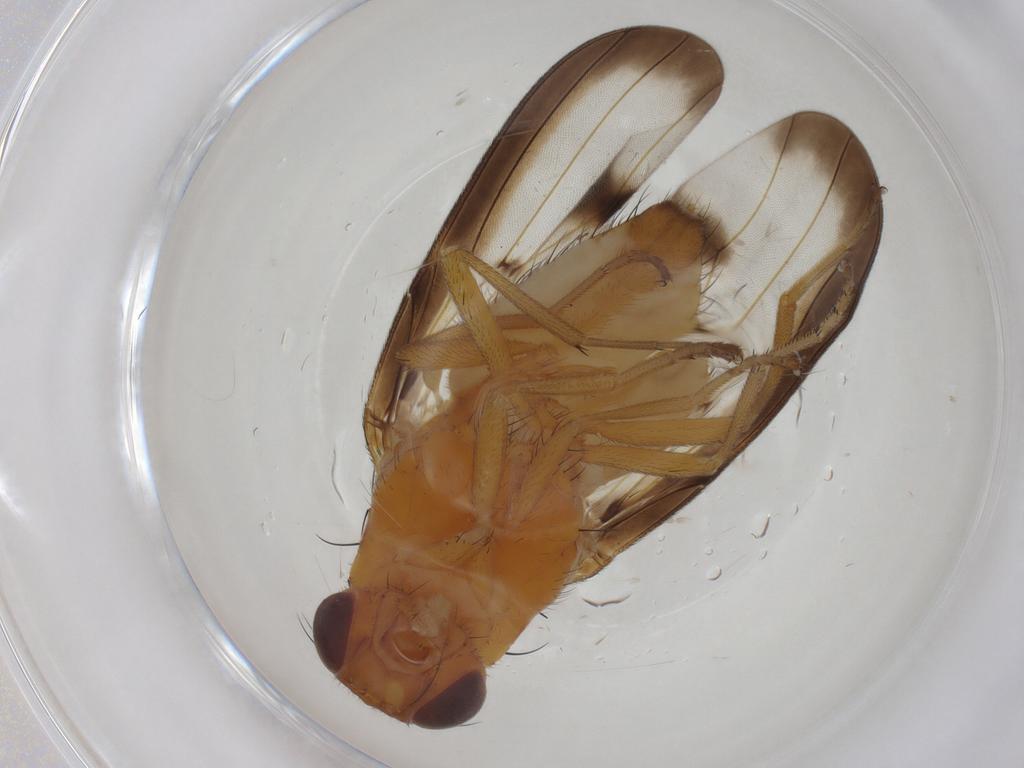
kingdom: Animalia
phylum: Arthropoda
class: Insecta
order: Diptera
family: Pallopteridae
